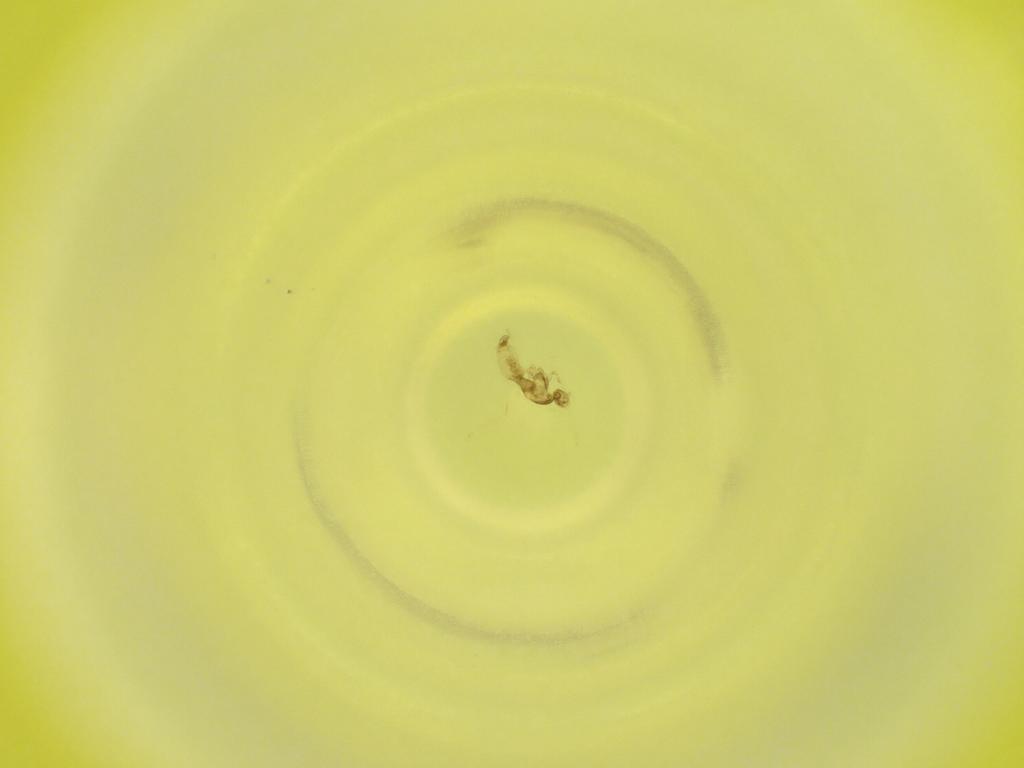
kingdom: Animalia
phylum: Arthropoda
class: Insecta
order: Diptera
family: Cecidomyiidae
